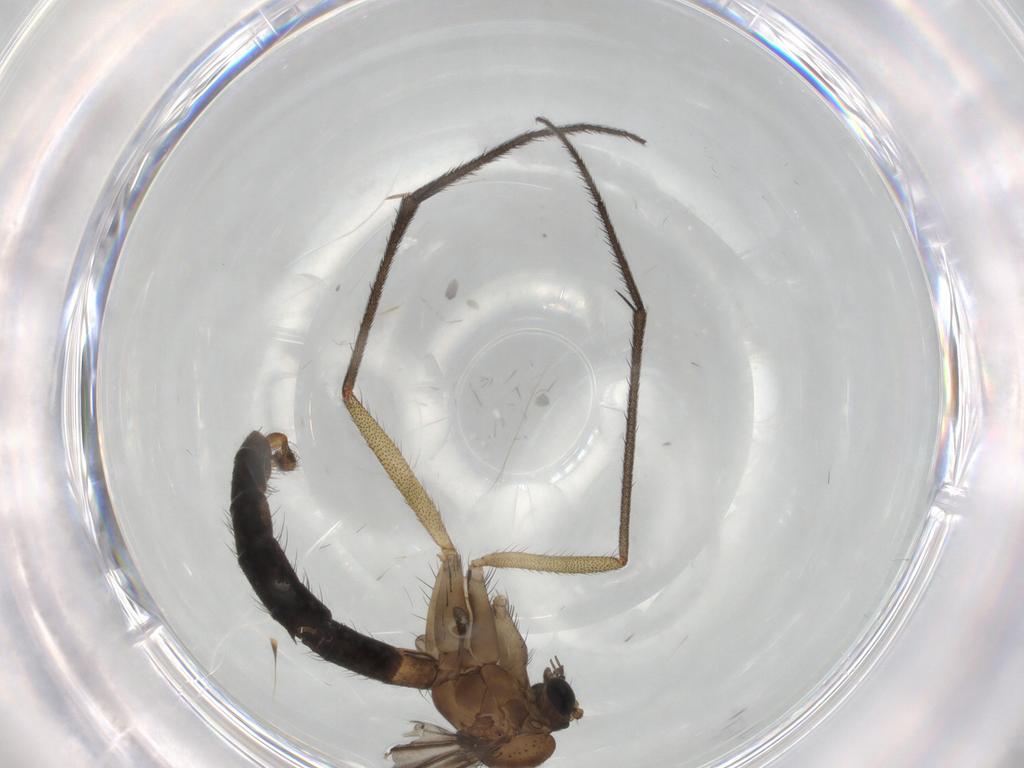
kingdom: Animalia
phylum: Arthropoda
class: Insecta
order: Diptera
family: Ditomyiidae
